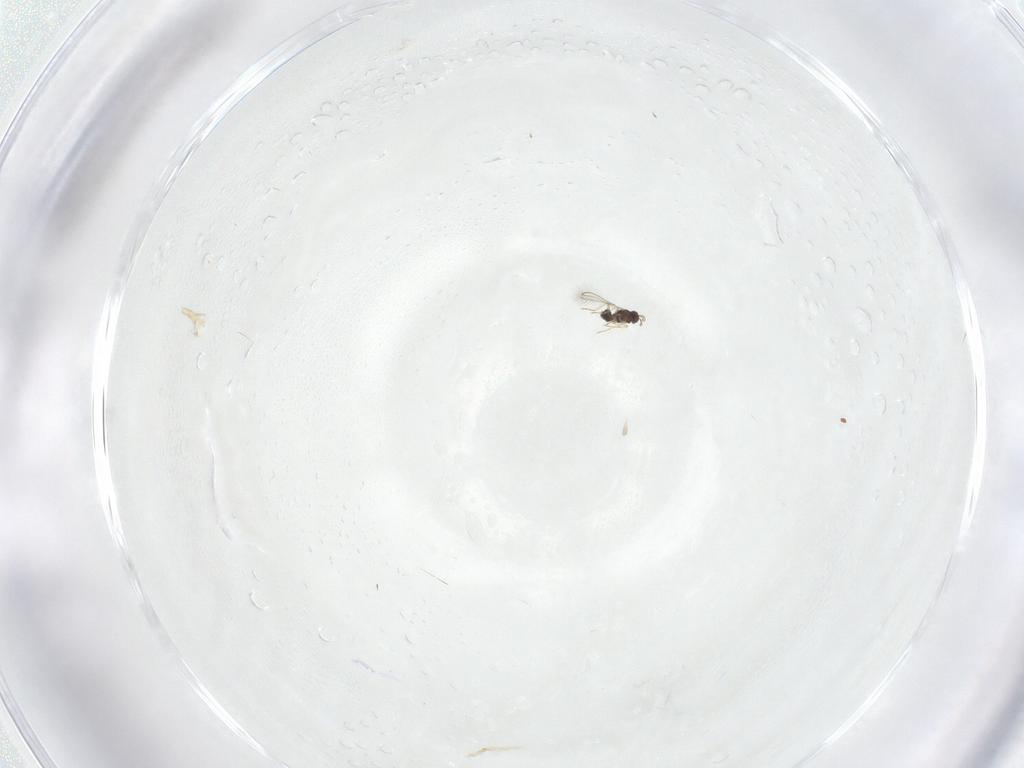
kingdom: Animalia
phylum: Arthropoda
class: Insecta
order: Hymenoptera
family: Mymaridae
